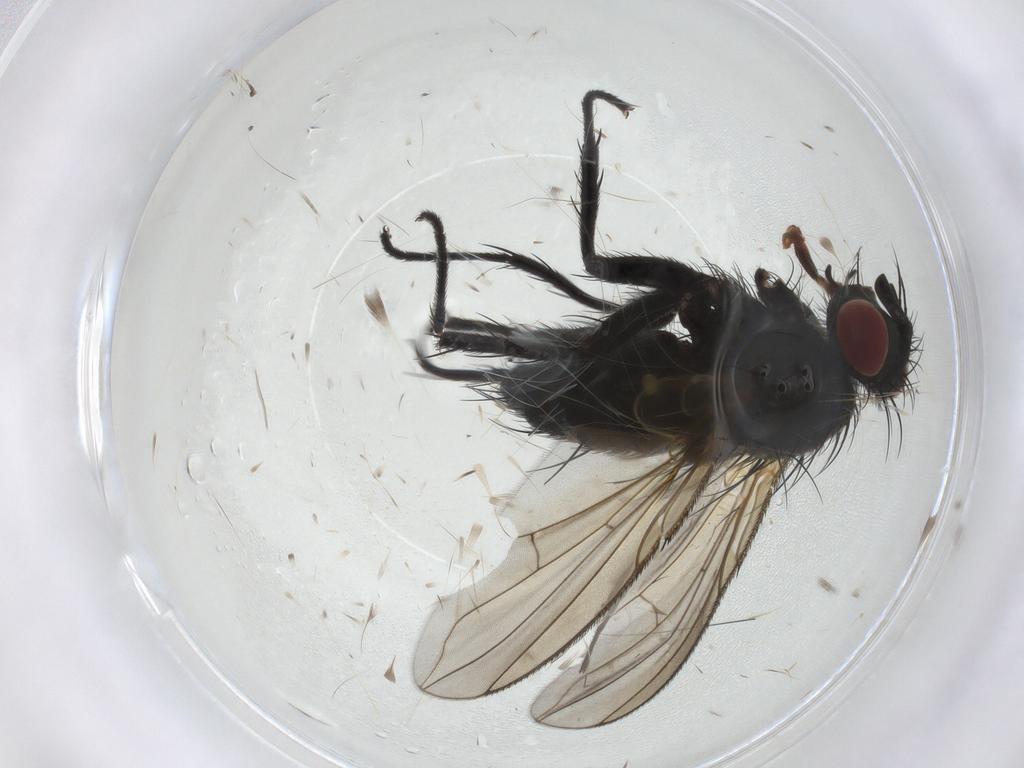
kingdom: Animalia
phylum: Arthropoda
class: Insecta
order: Diptera
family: Tachinidae
